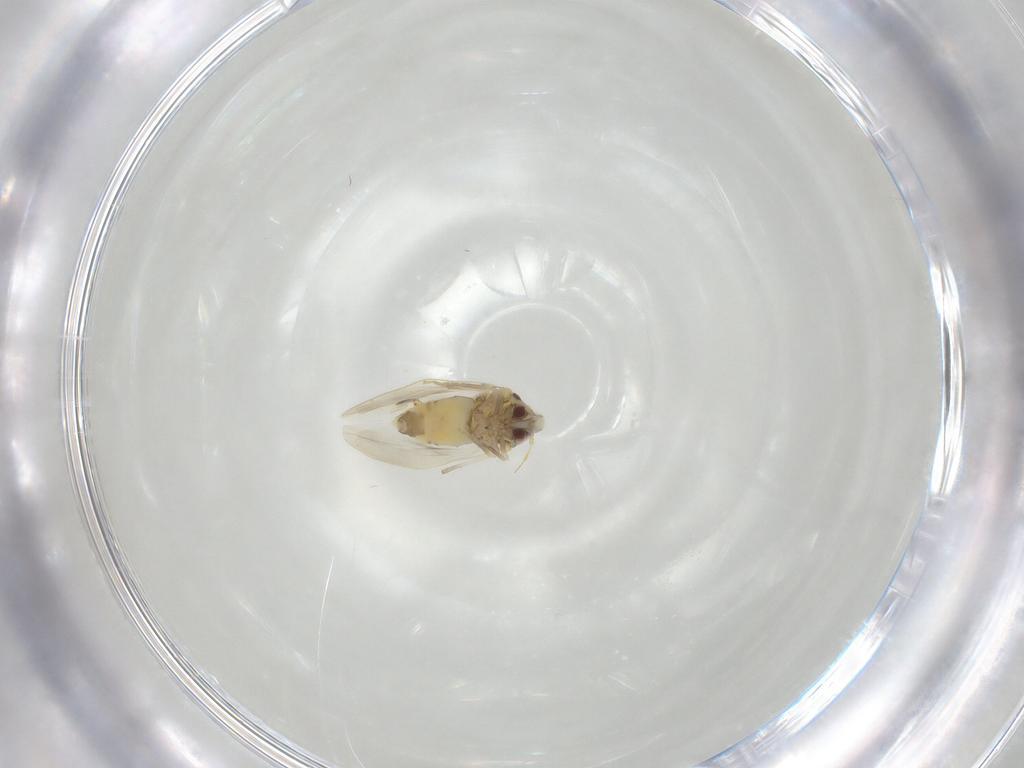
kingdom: Animalia
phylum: Arthropoda
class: Insecta
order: Hemiptera
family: Aleyrodidae
